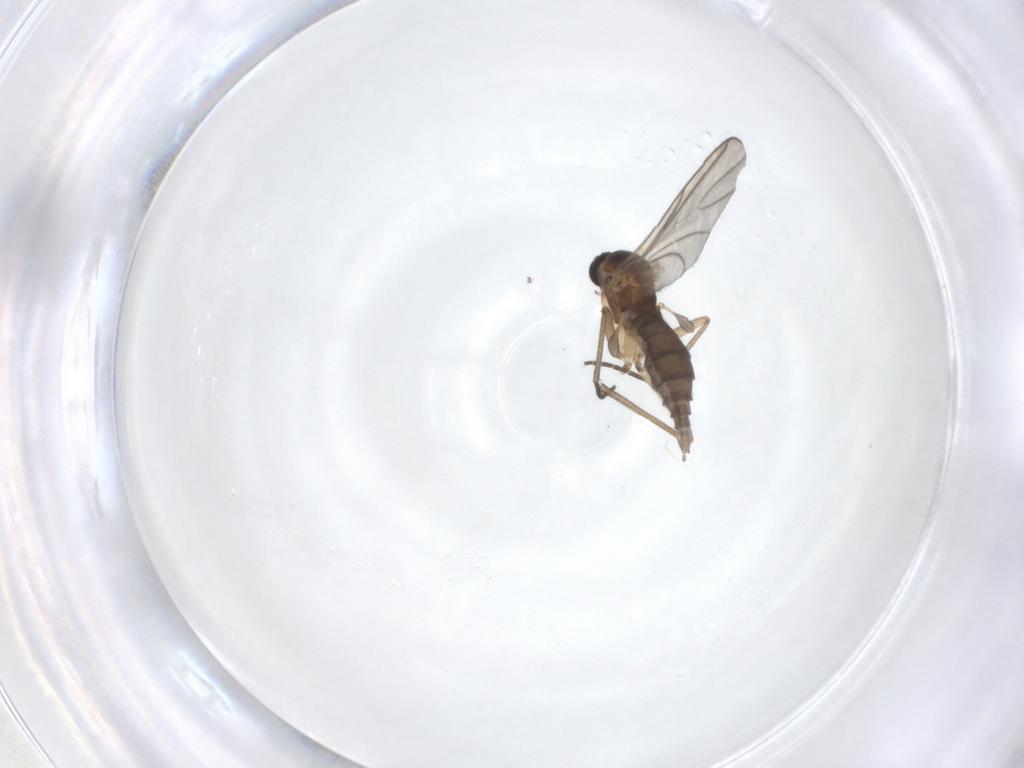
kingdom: Animalia
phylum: Arthropoda
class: Insecta
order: Diptera
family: Sciaridae
